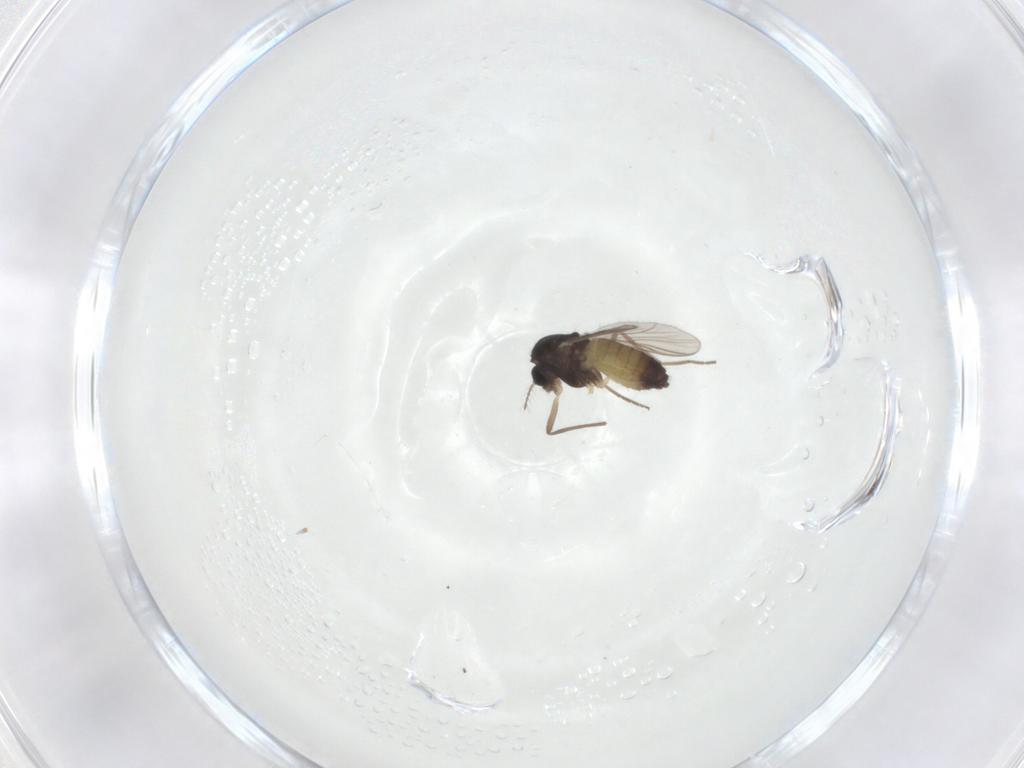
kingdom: Animalia
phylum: Arthropoda
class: Insecta
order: Diptera
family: Chironomidae
